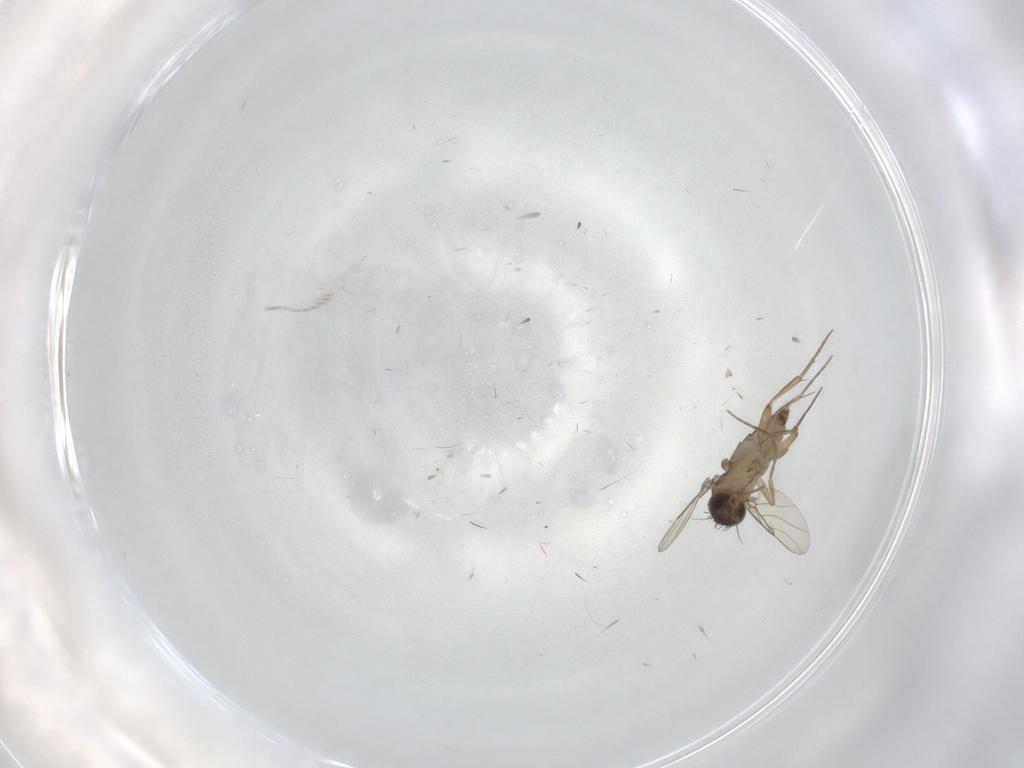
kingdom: Animalia
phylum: Arthropoda
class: Insecta
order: Diptera
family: Phoridae
